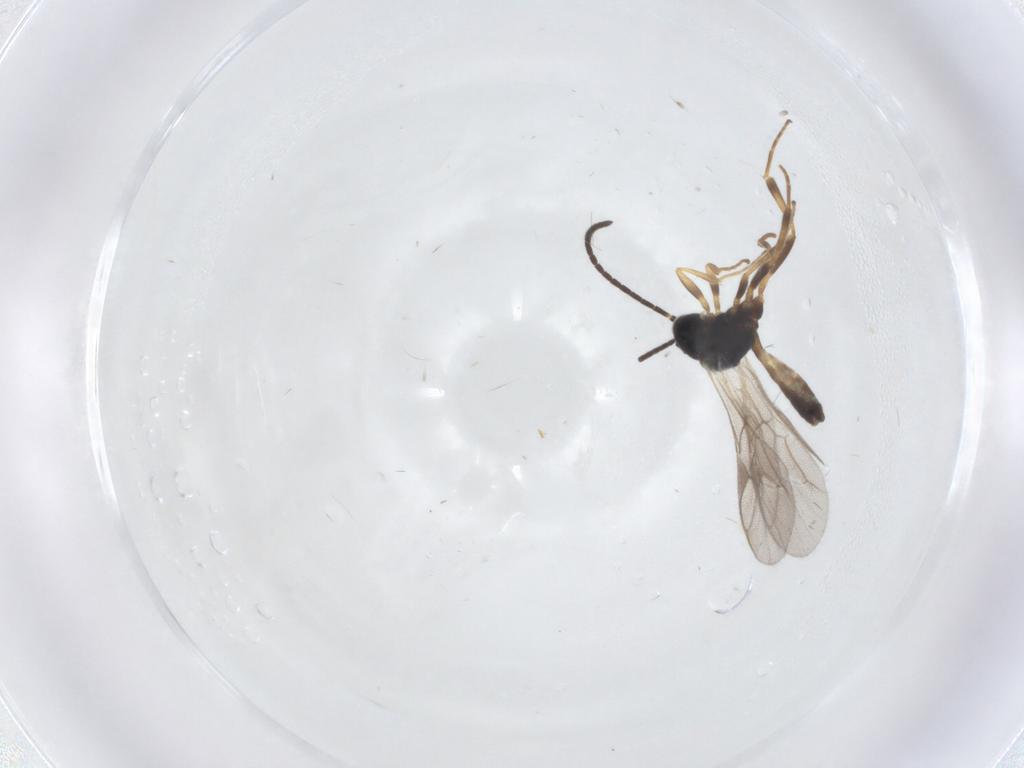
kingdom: Animalia
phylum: Arthropoda
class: Insecta
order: Hymenoptera
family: Ichneumonidae
